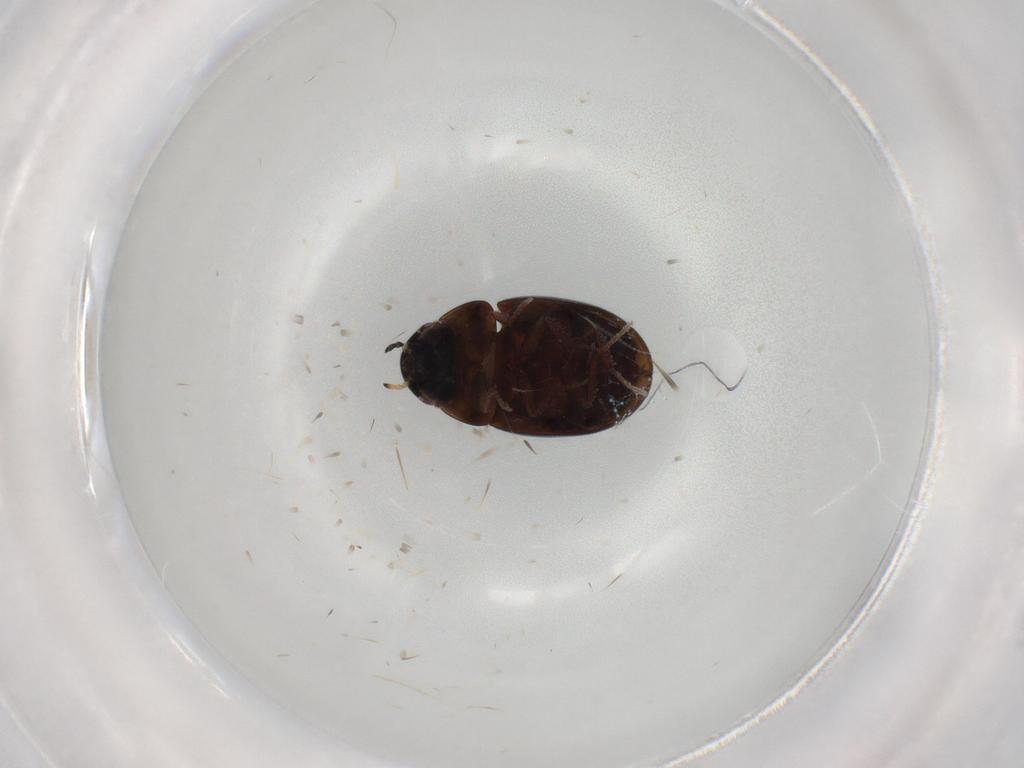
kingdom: Animalia
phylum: Arthropoda
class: Insecta
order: Coleoptera
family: Hydrophilidae
